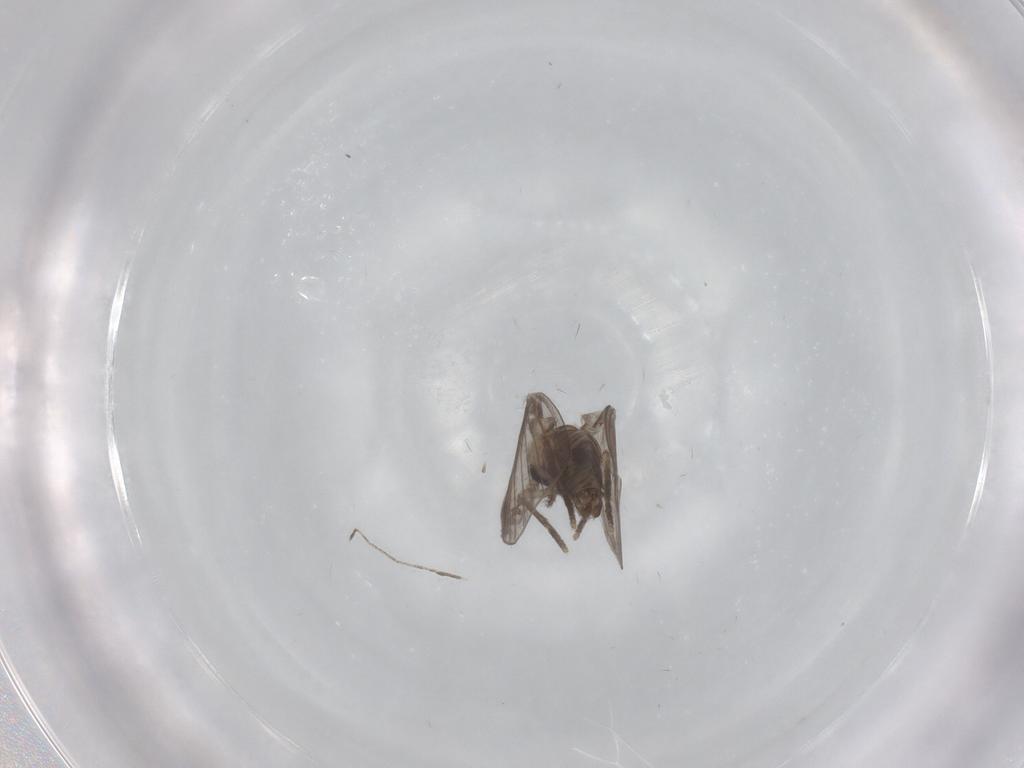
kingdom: Animalia
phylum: Arthropoda
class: Insecta
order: Diptera
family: Psychodidae
